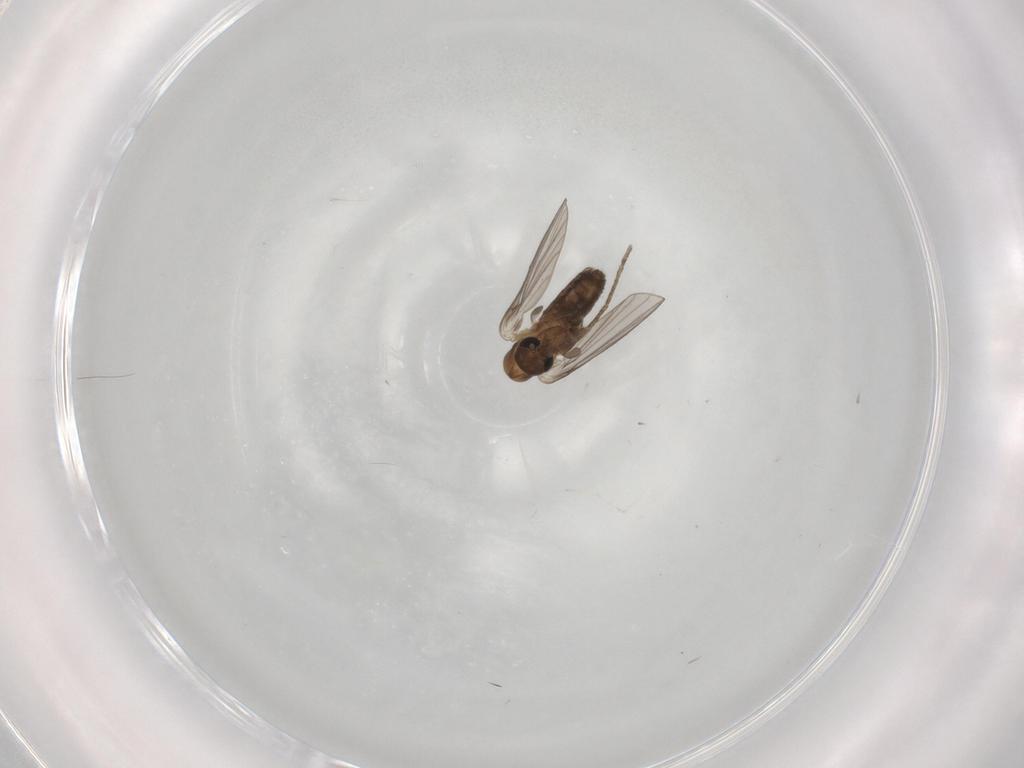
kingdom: Animalia
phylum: Arthropoda
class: Insecta
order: Diptera
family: Psychodidae
